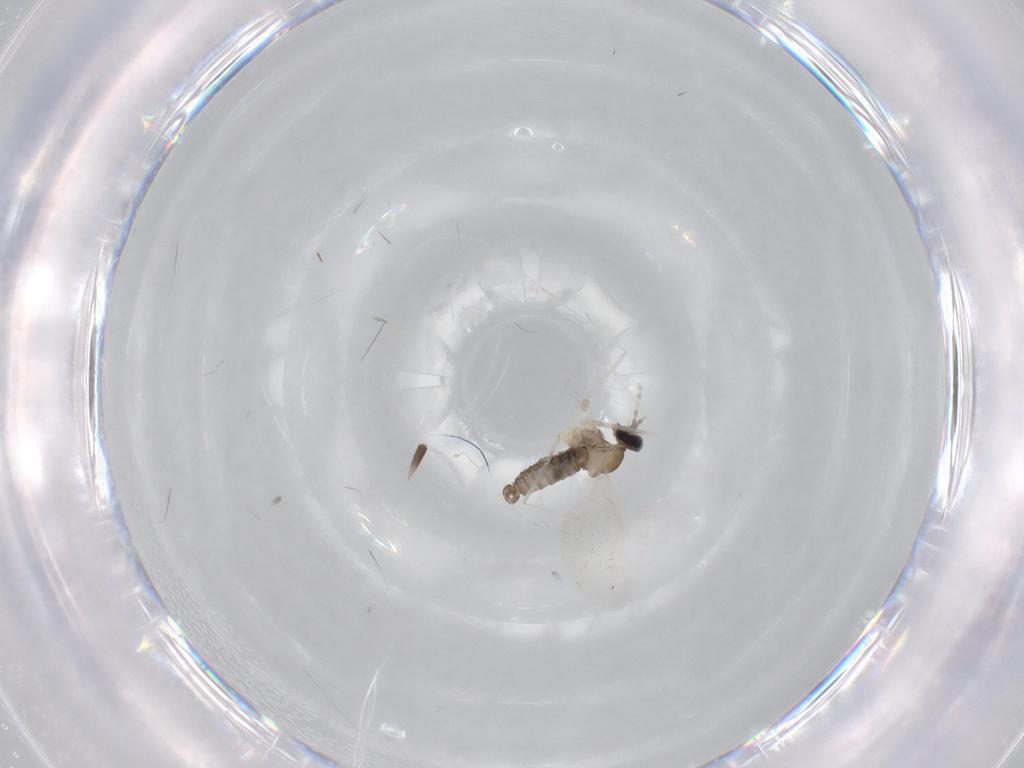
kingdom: Animalia
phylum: Arthropoda
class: Insecta
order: Diptera
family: Cecidomyiidae
